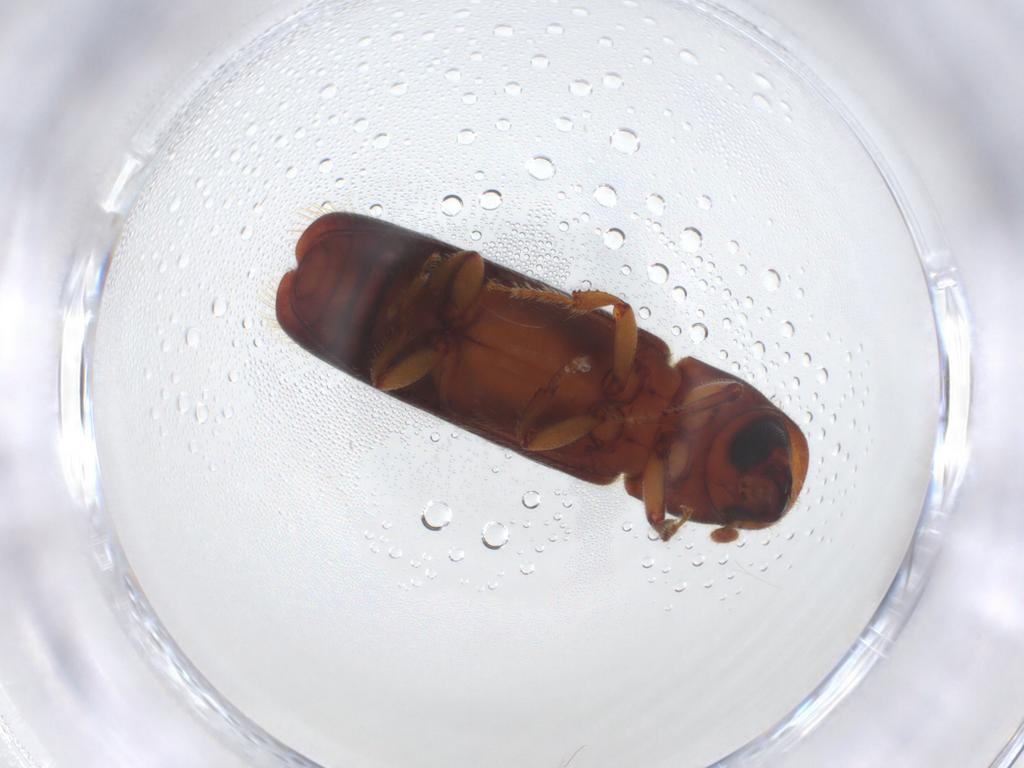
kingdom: Animalia
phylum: Arthropoda
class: Insecta
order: Coleoptera
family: Curculionidae
